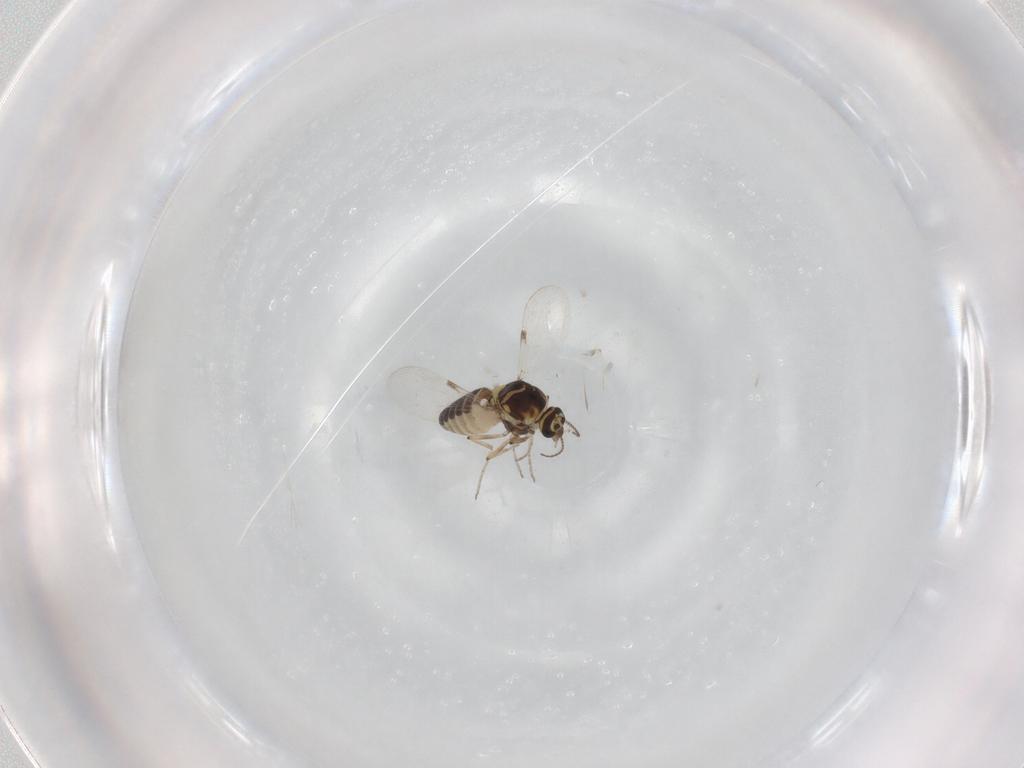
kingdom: Animalia
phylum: Arthropoda
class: Insecta
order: Diptera
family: Ceratopogonidae
